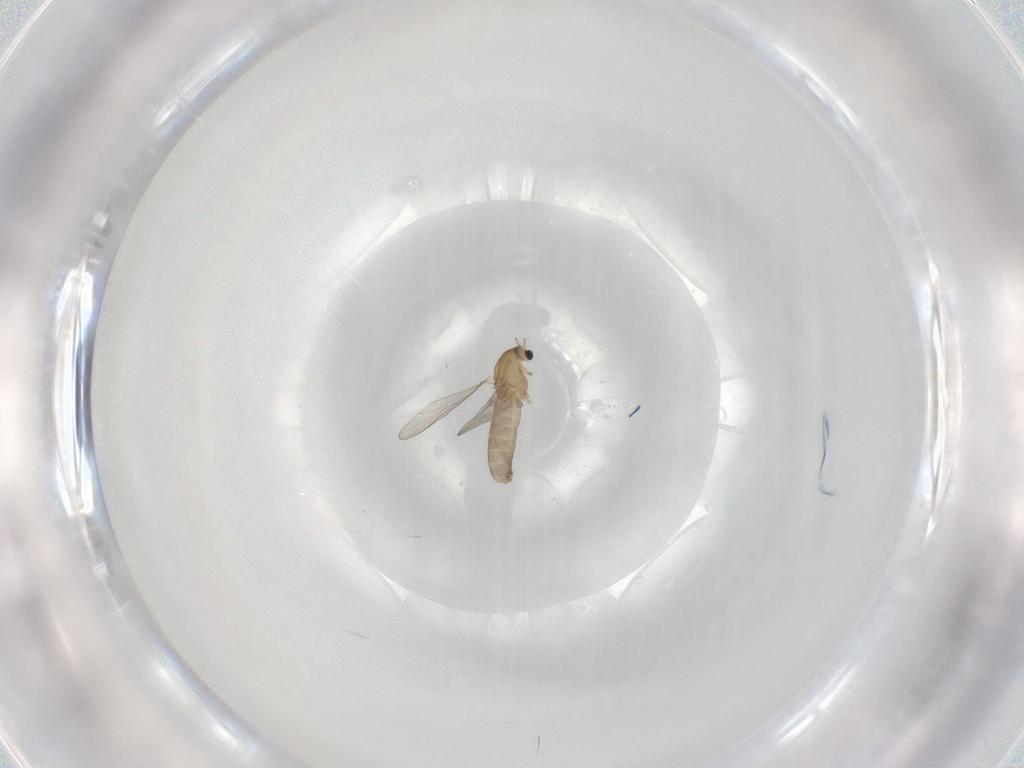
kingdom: Animalia
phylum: Arthropoda
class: Insecta
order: Diptera
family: Chironomidae
